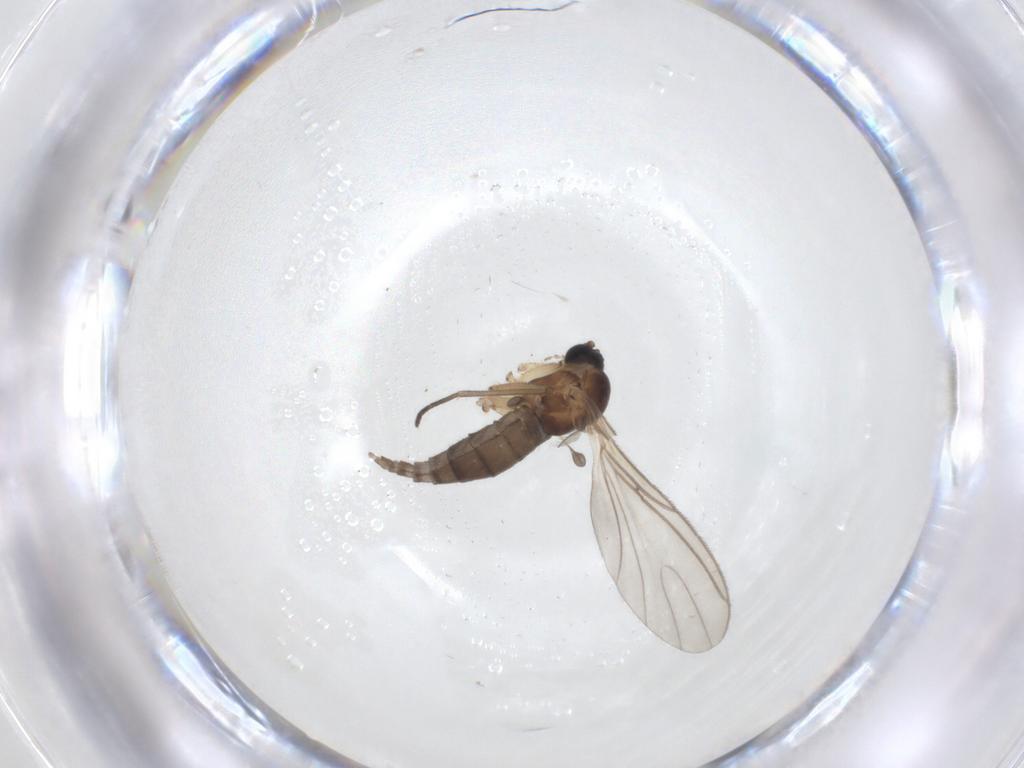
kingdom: Animalia
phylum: Arthropoda
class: Insecta
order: Diptera
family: Sciaridae
